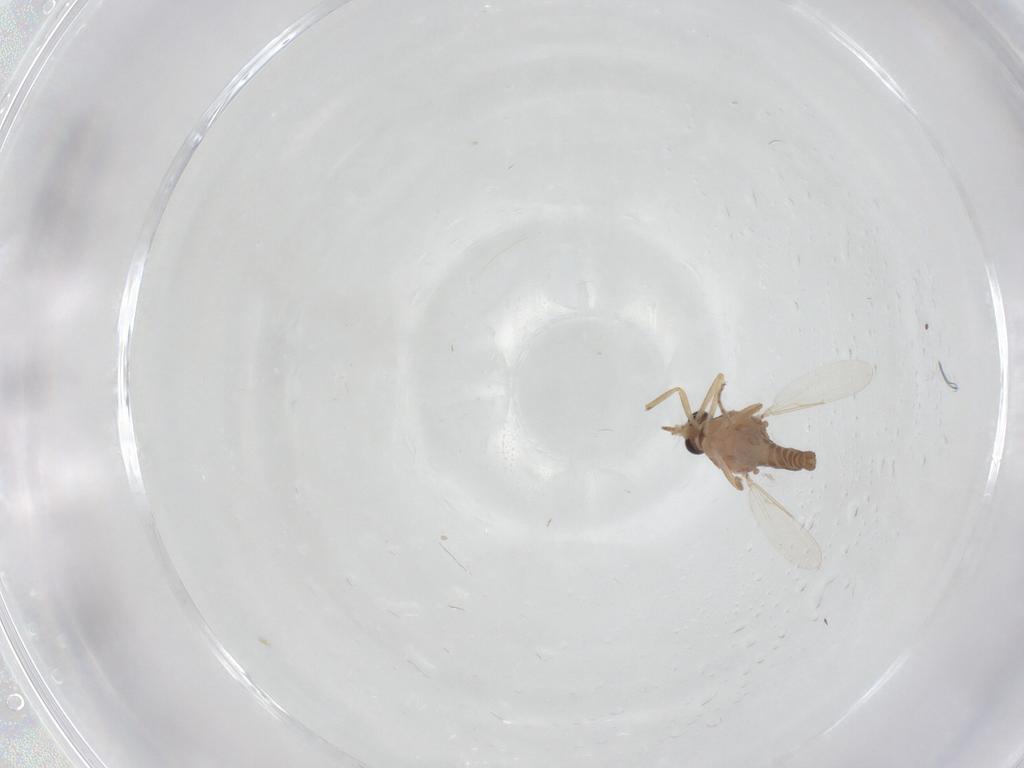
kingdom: Animalia
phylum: Arthropoda
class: Insecta
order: Diptera
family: Ceratopogonidae
